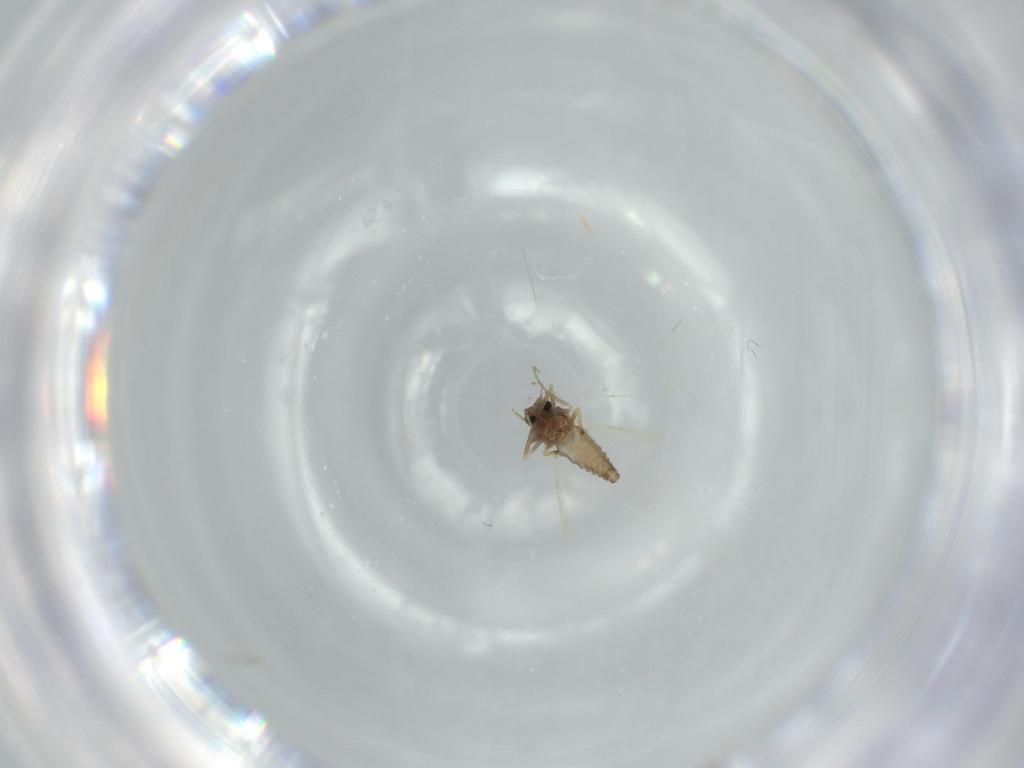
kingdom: Animalia
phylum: Arthropoda
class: Insecta
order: Diptera
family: Ceratopogonidae
